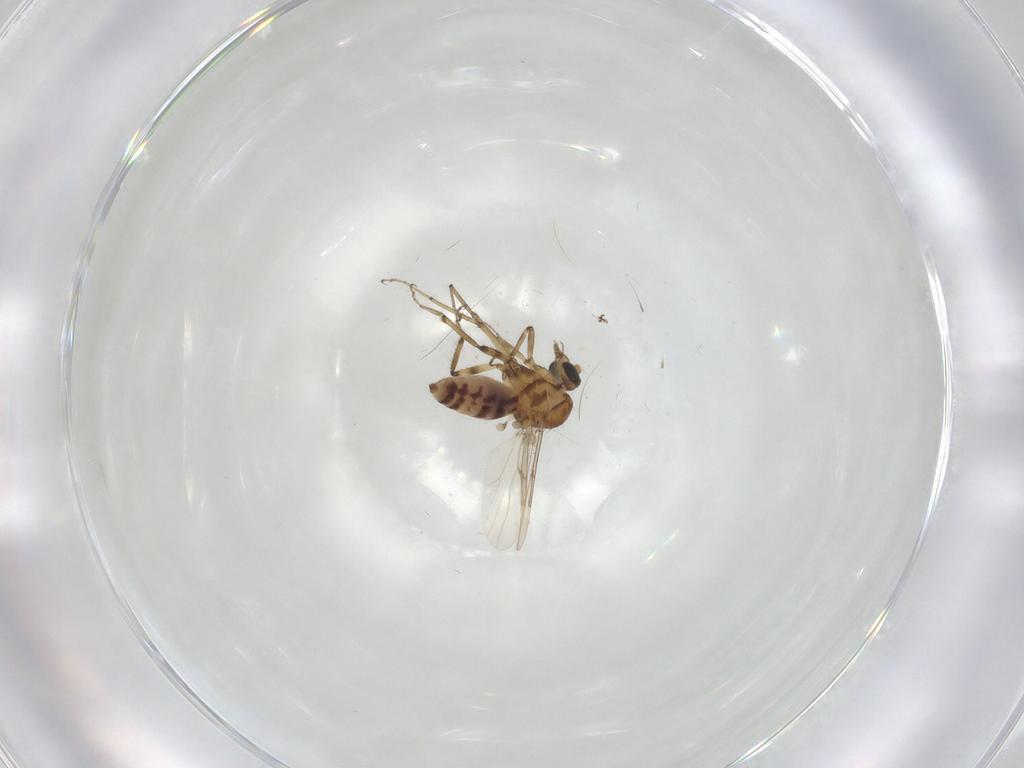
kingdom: Animalia
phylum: Arthropoda
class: Insecta
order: Diptera
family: Ceratopogonidae
